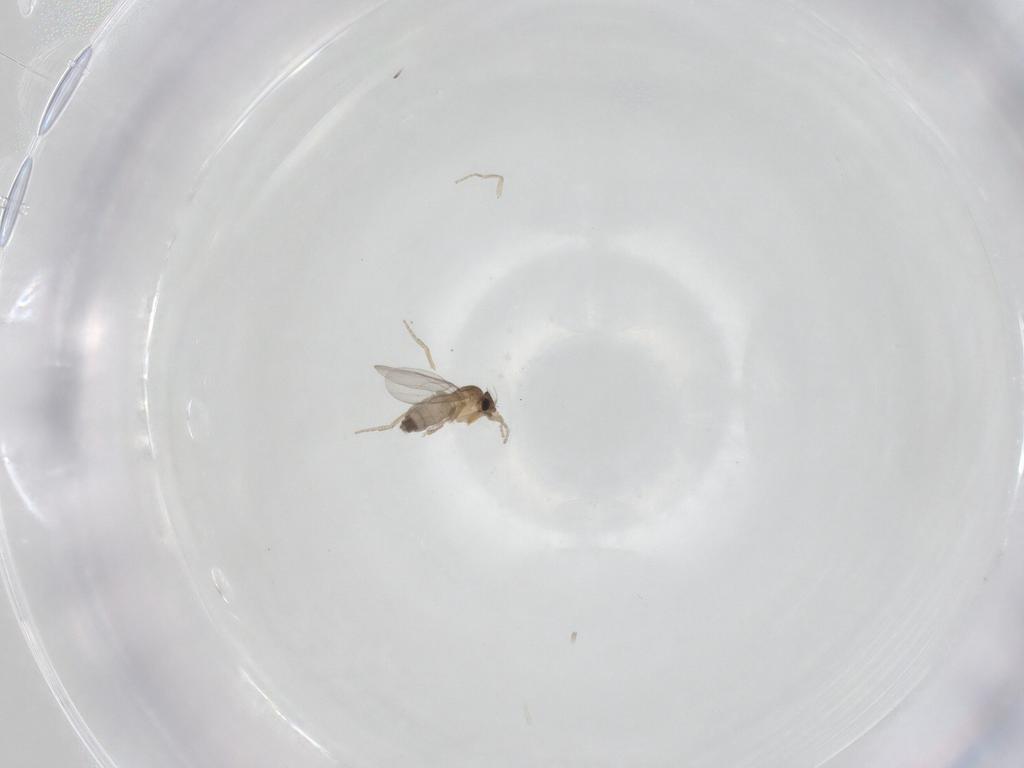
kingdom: Animalia
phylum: Arthropoda
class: Insecta
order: Diptera
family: Phoridae
